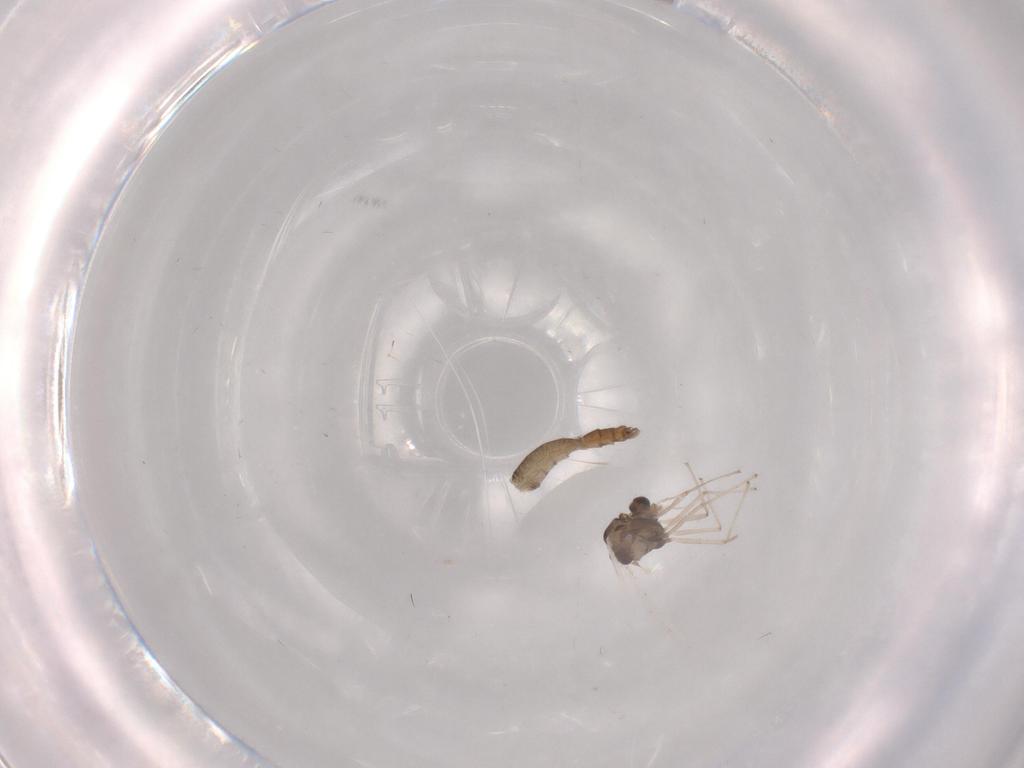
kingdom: Animalia
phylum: Arthropoda
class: Insecta
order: Diptera
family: Chironomidae
